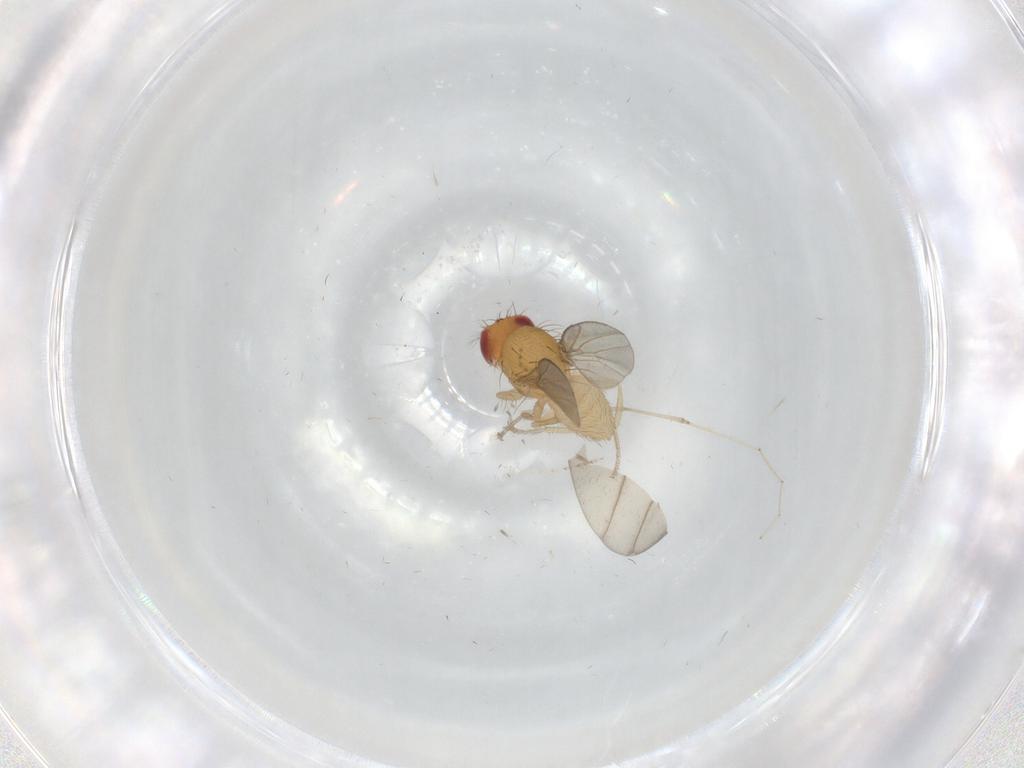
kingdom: Animalia
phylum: Arthropoda
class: Insecta
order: Diptera
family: Drosophilidae
